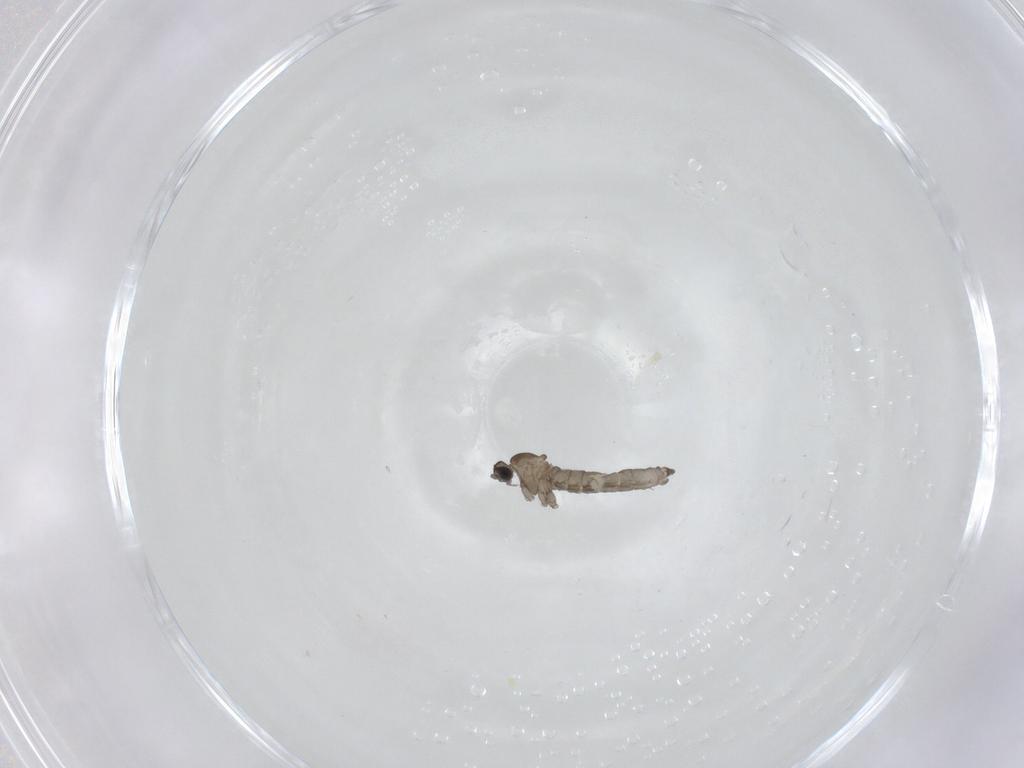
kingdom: Animalia
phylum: Arthropoda
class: Insecta
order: Diptera
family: Cecidomyiidae
